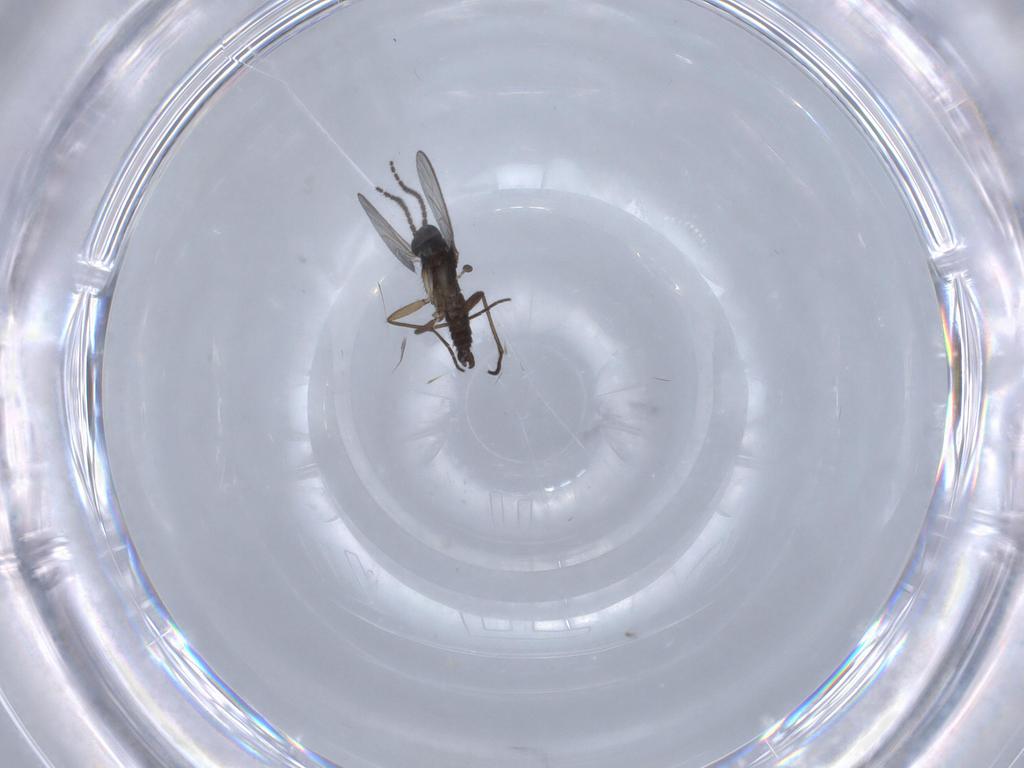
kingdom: Animalia
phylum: Arthropoda
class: Insecta
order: Diptera
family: Sciaridae
